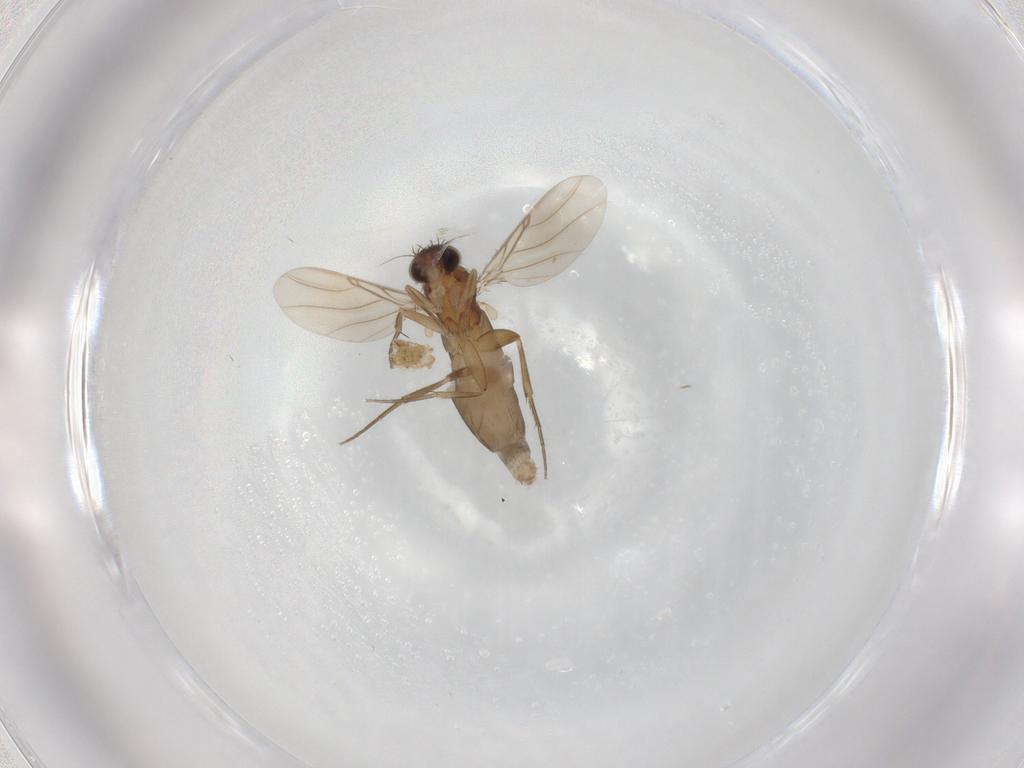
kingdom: Animalia
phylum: Arthropoda
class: Insecta
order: Diptera
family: Phoridae
